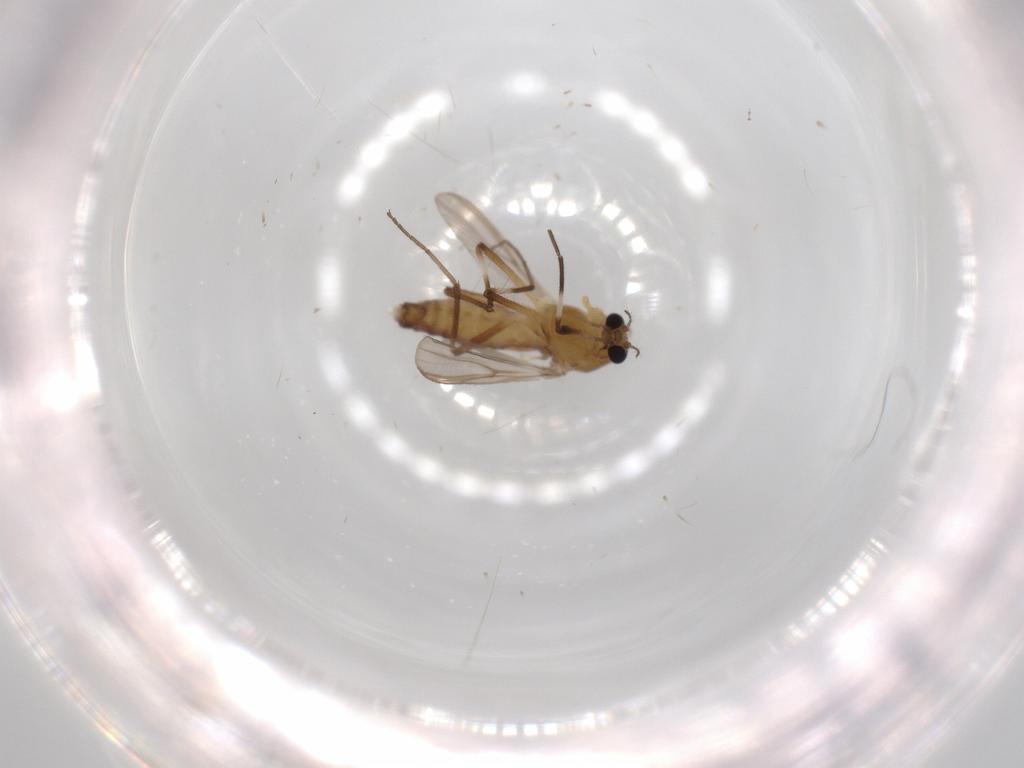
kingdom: Animalia
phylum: Arthropoda
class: Insecta
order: Diptera
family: Chironomidae
